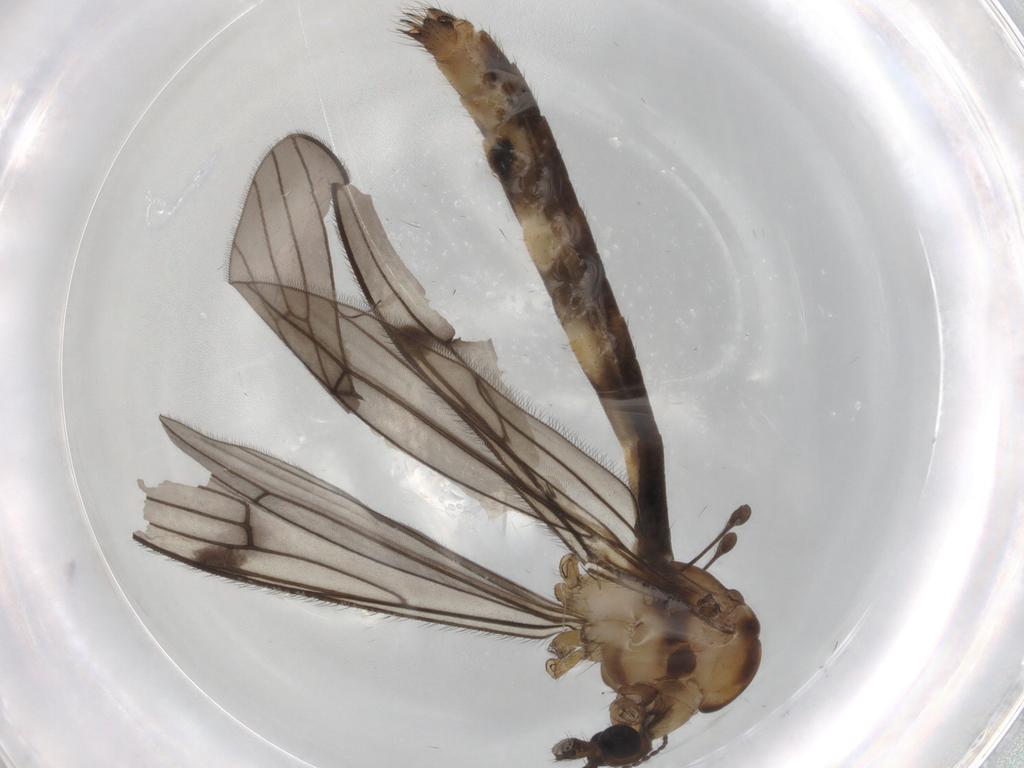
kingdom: Animalia
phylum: Arthropoda
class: Insecta
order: Diptera
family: Limoniidae
